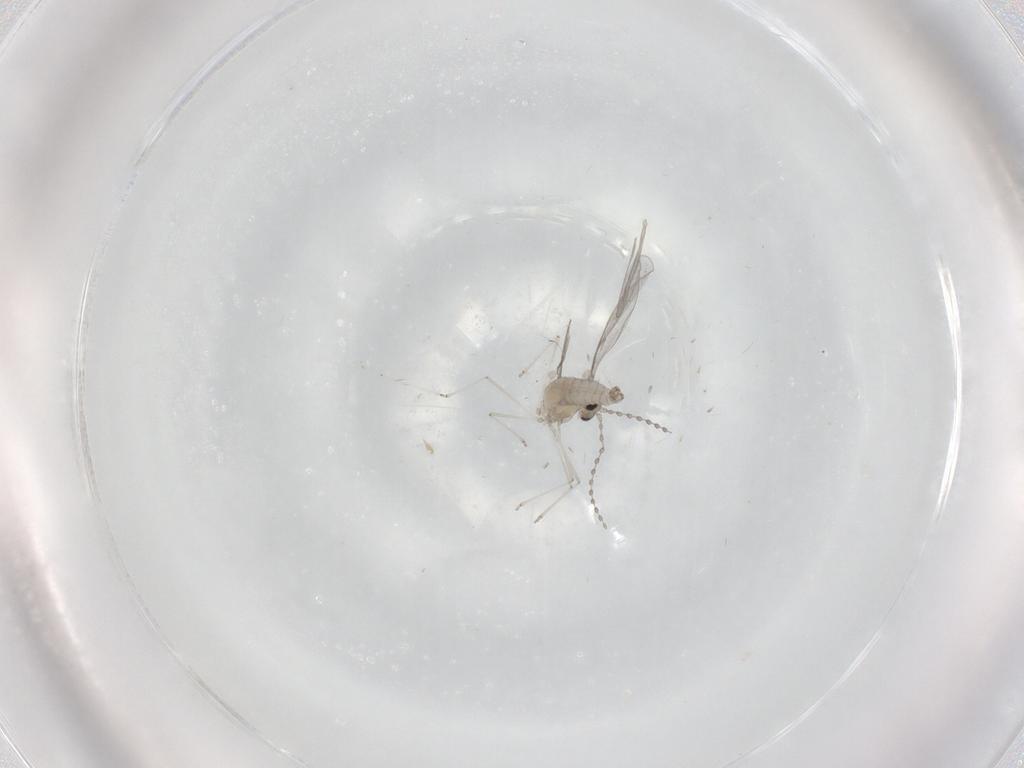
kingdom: Animalia
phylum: Arthropoda
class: Insecta
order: Diptera
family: Cecidomyiidae
